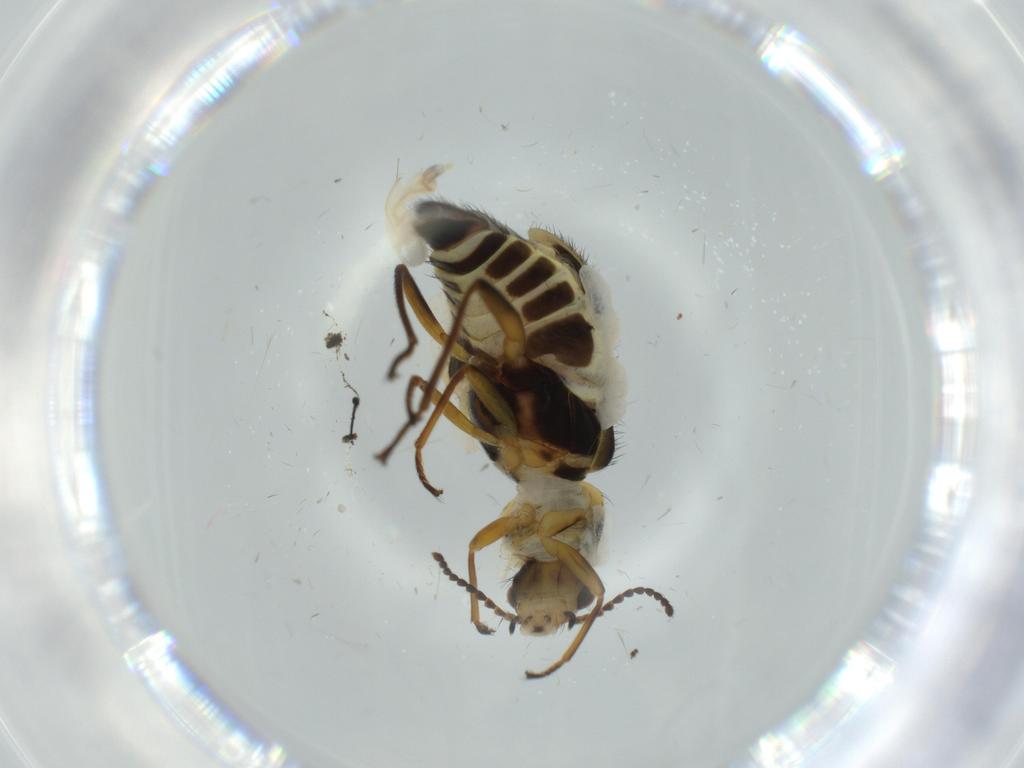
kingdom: Animalia
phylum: Arthropoda
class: Insecta
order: Coleoptera
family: Melyridae
